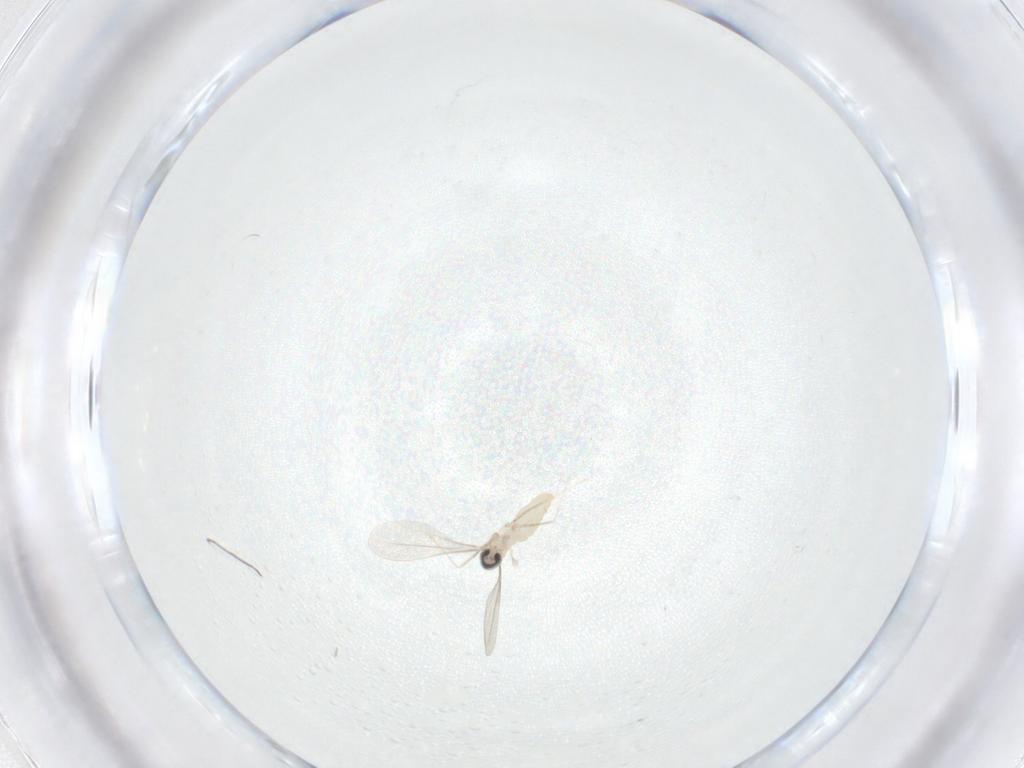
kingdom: Animalia
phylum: Arthropoda
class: Insecta
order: Diptera
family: Cecidomyiidae
